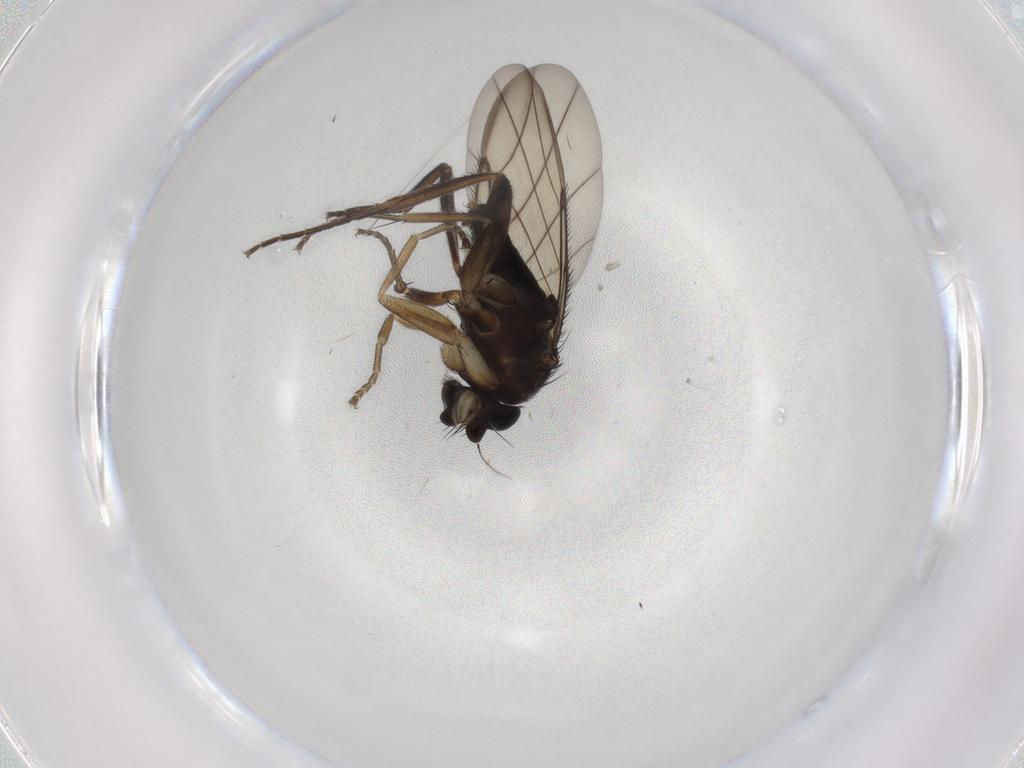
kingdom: Animalia
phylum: Arthropoda
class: Insecta
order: Diptera
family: Phoridae
